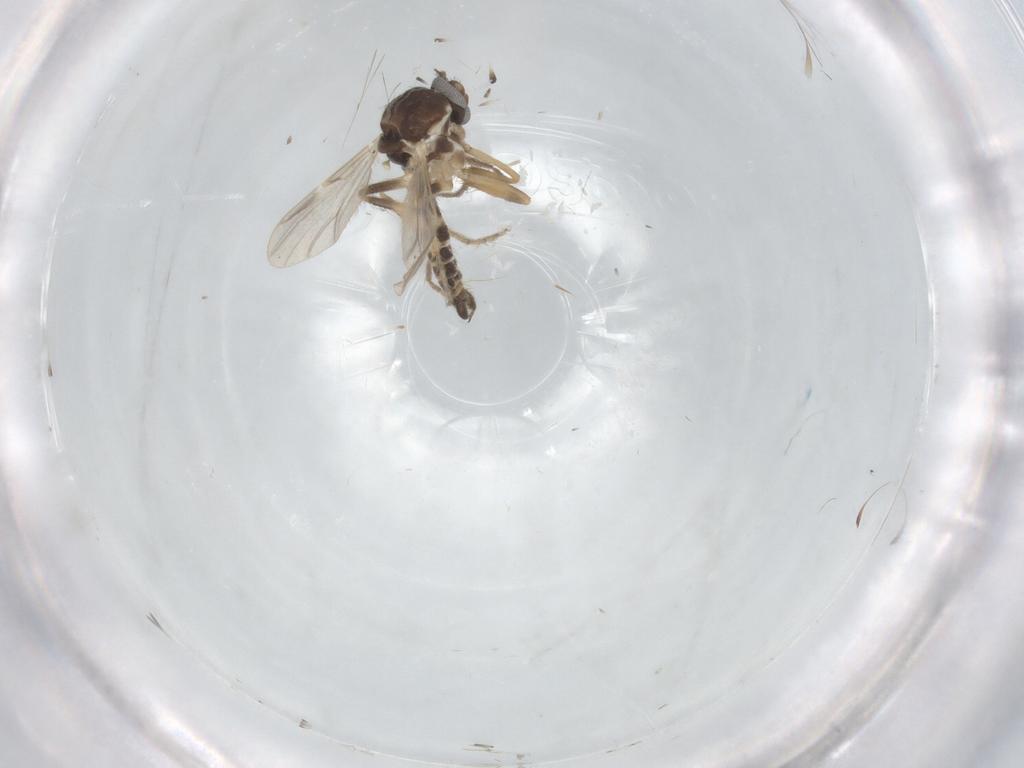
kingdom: Animalia
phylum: Arthropoda
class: Insecta
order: Diptera
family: Ceratopogonidae
